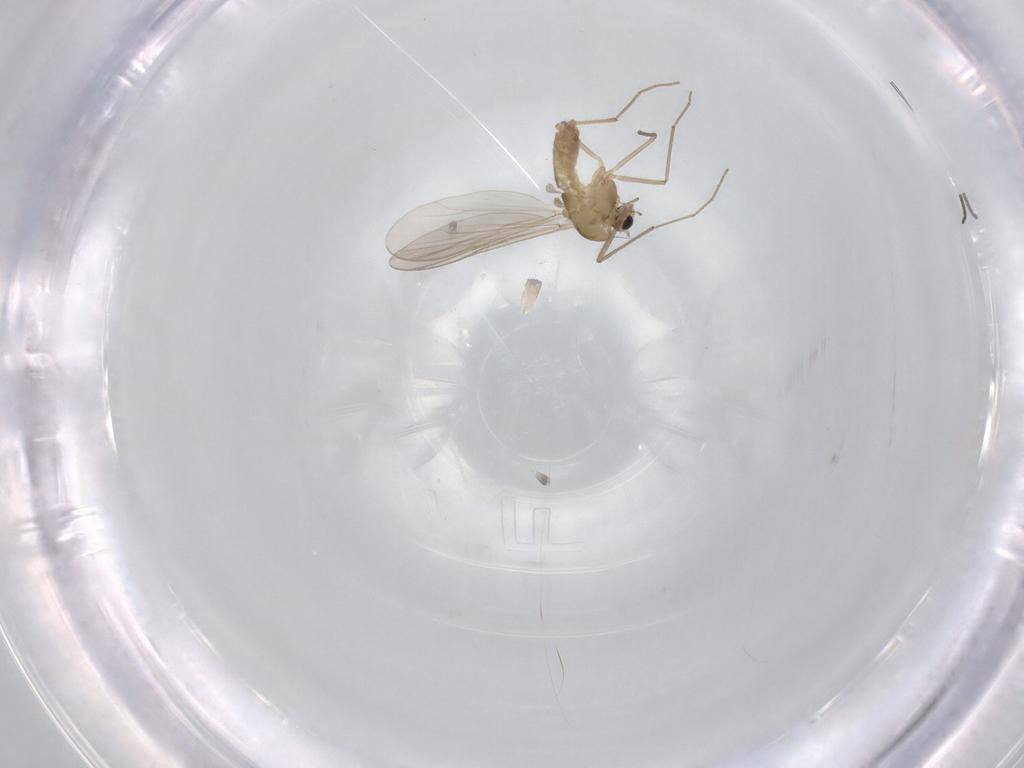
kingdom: Animalia
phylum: Arthropoda
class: Insecta
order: Diptera
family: Chironomidae
